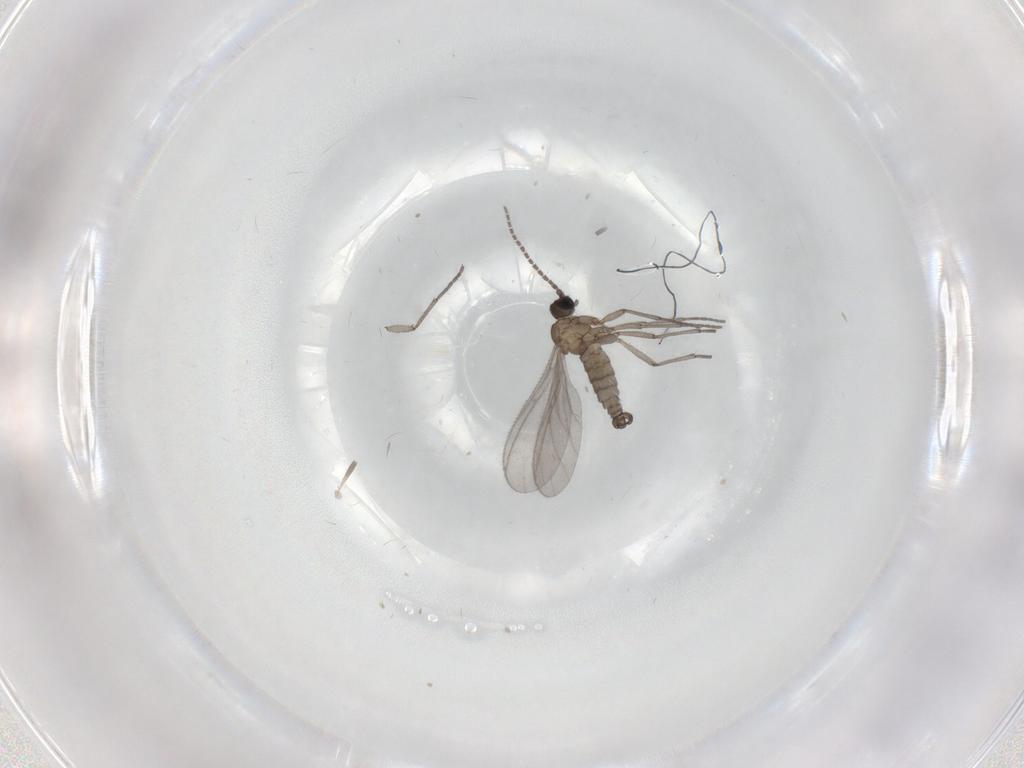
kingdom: Animalia
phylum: Arthropoda
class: Insecta
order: Diptera
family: Sciaridae
